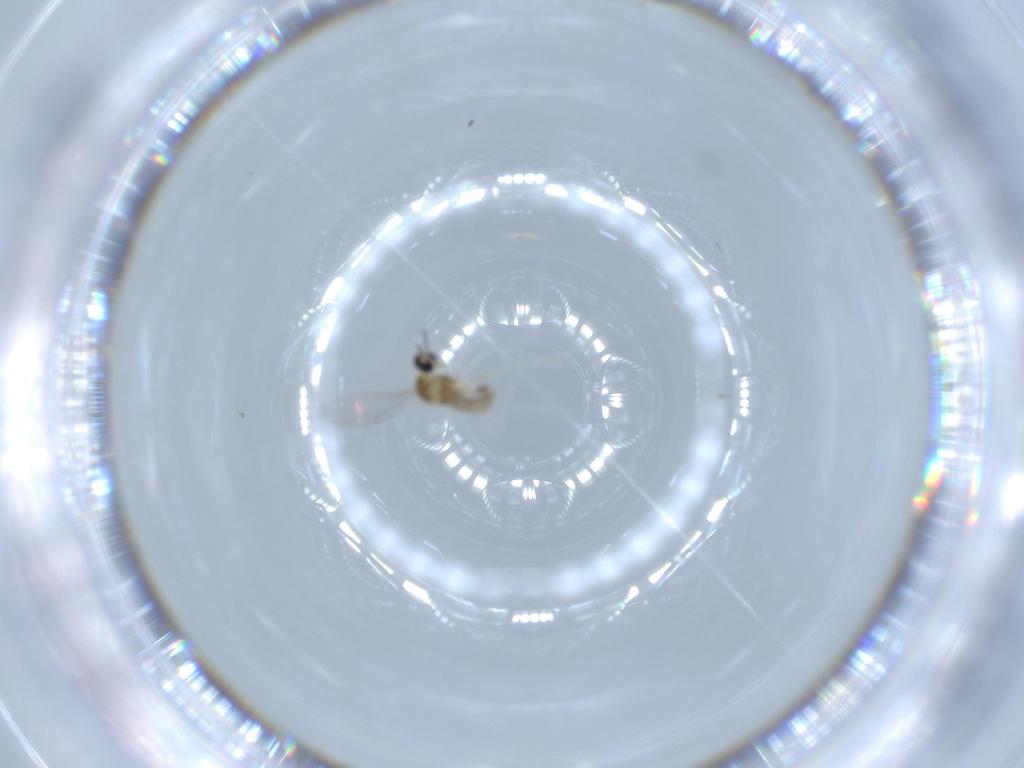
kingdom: Animalia
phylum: Arthropoda
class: Insecta
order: Diptera
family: Cecidomyiidae
